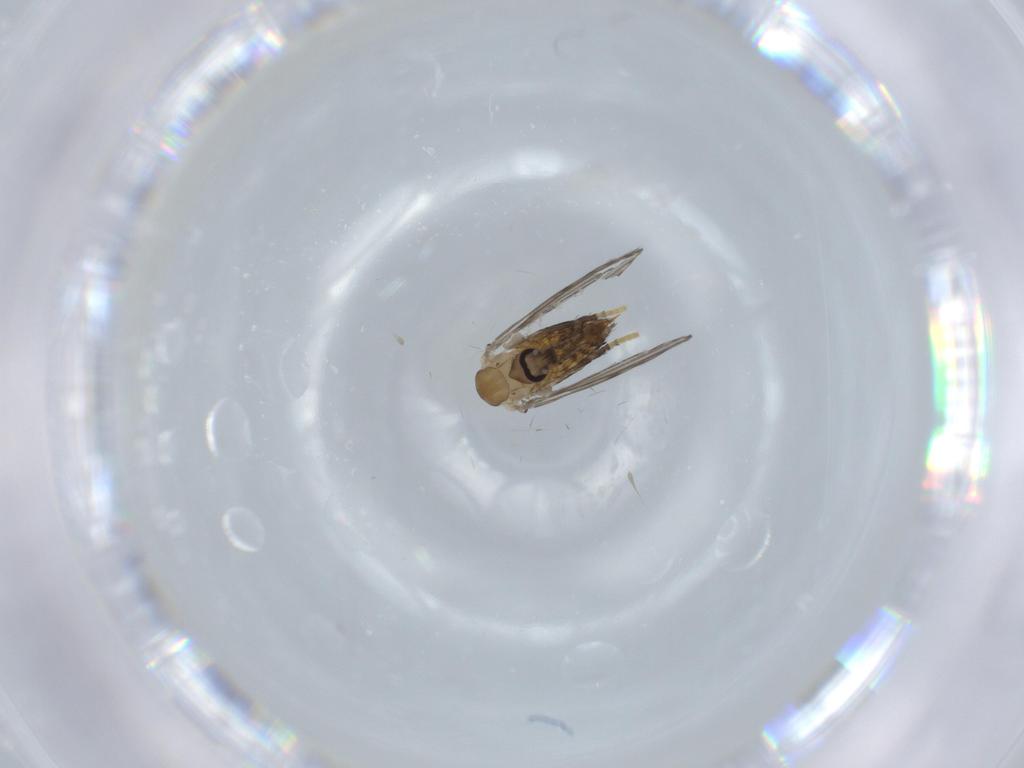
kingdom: Animalia
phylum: Arthropoda
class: Insecta
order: Diptera
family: Psychodidae
